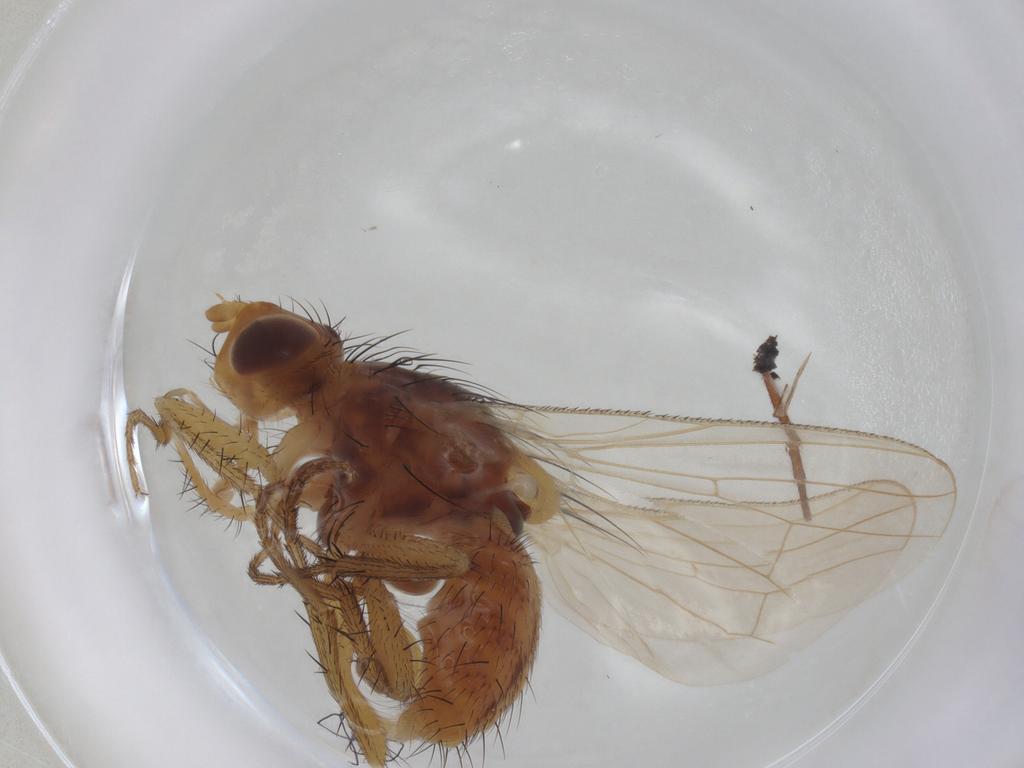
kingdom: Animalia
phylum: Arthropoda
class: Insecta
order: Diptera
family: Anthomyiidae
